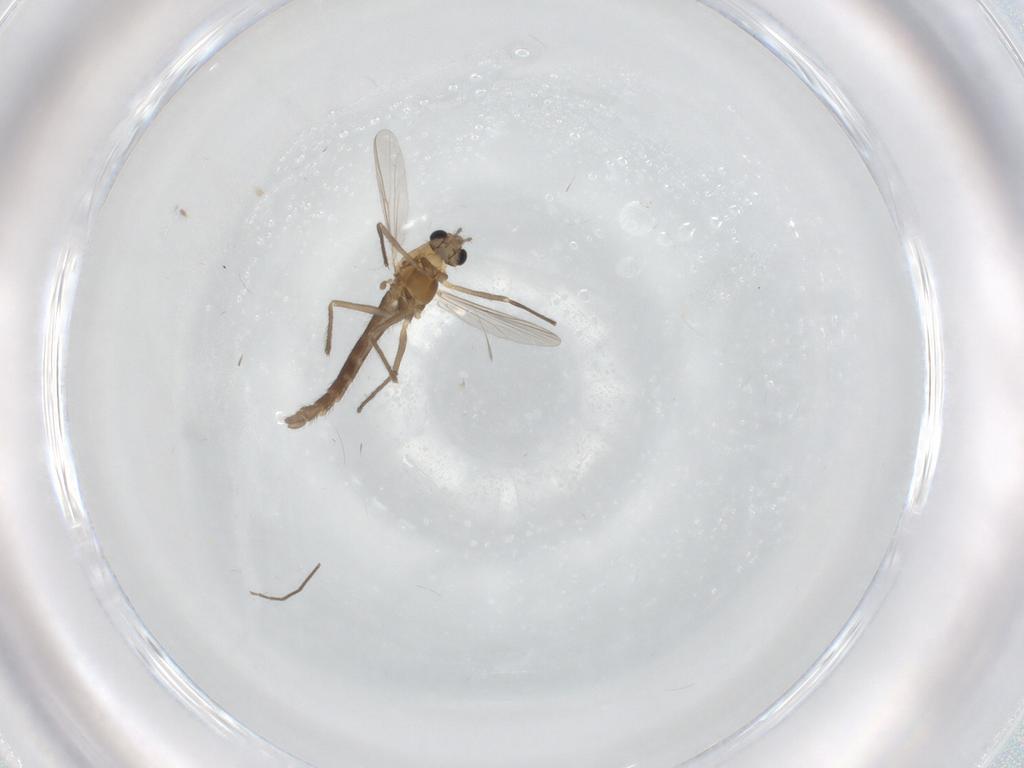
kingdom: Animalia
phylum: Arthropoda
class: Insecta
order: Diptera
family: Chironomidae
